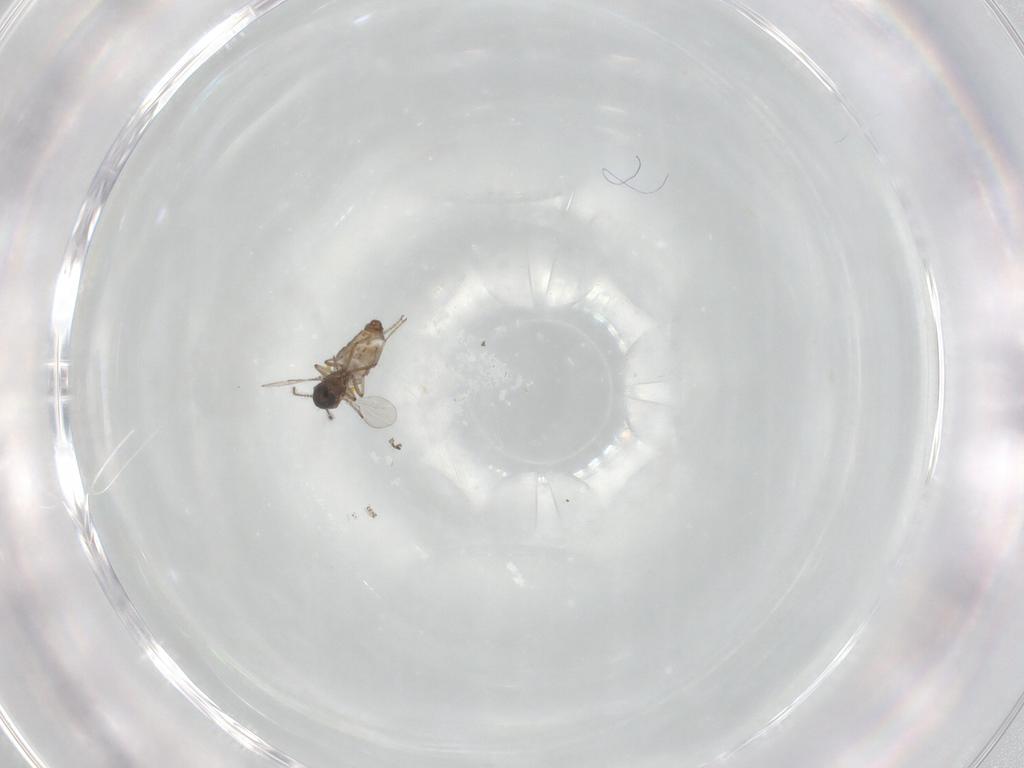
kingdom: Animalia
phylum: Arthropoda
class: Insecta
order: Diptera
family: Ceratopogonidae
